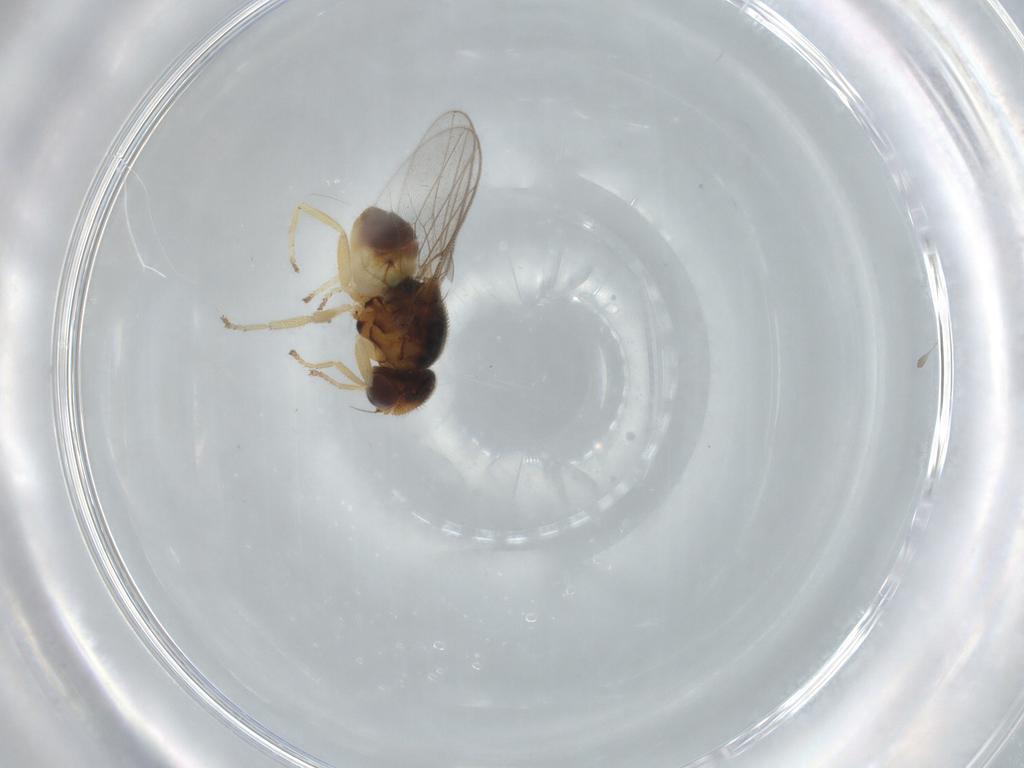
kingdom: Animalia
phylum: Arthropoda
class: Insecta
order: Diptera
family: Chloropidae
